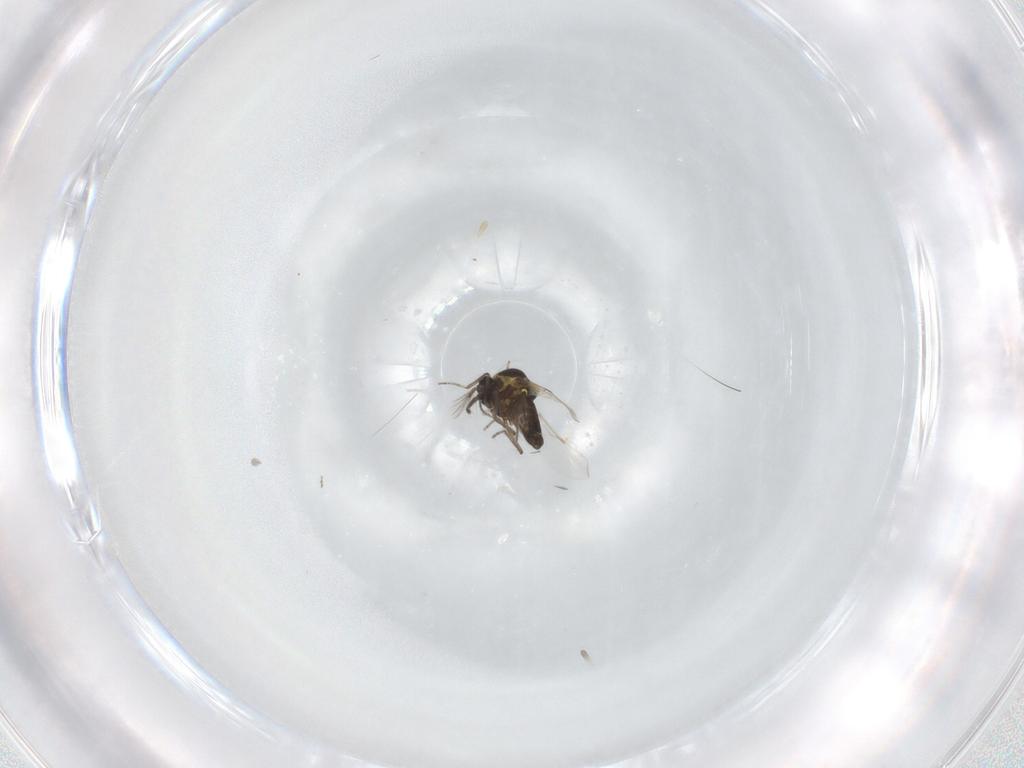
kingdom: Animalia
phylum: Arthropoda
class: Insecta
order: Diptera
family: Ceratopogonidae
